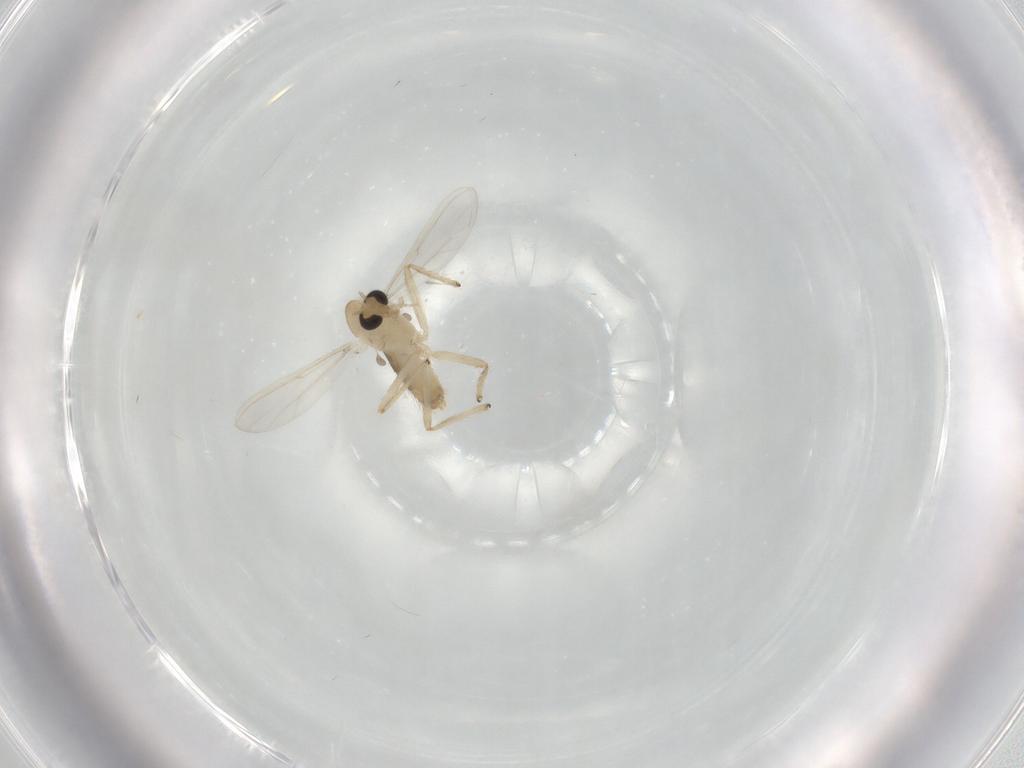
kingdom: Animalia
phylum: Arthropoda
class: Insecta
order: Diptera
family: Chironomidae
